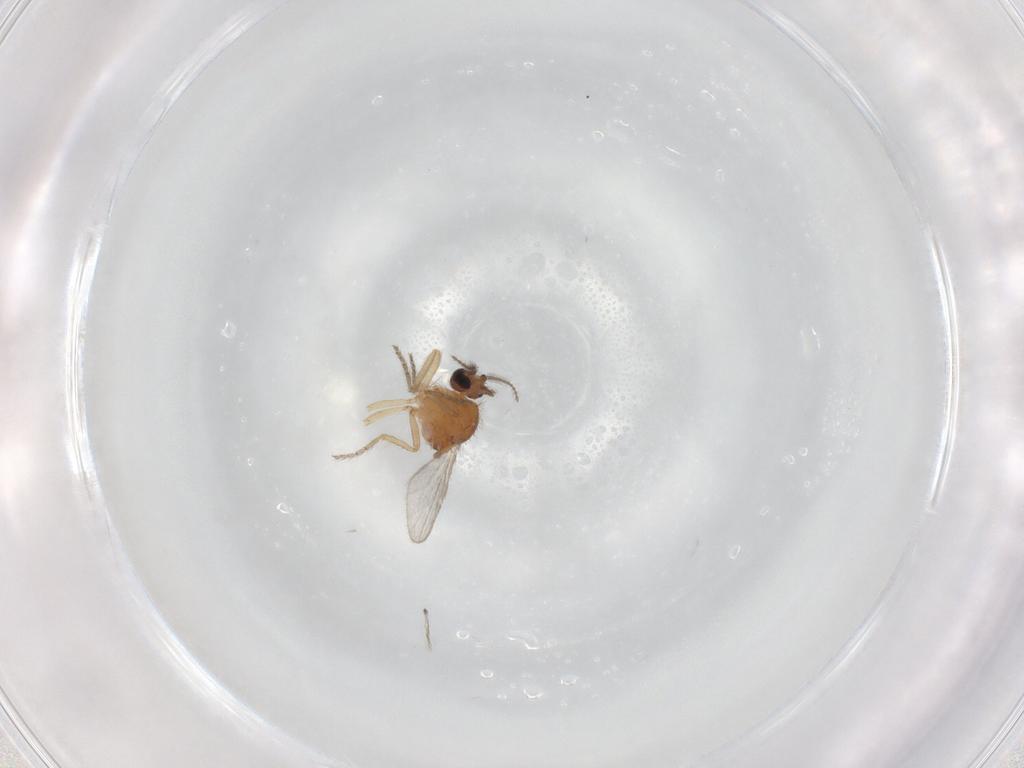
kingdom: Animalia
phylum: Arthropoda
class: Insecta
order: Diptera
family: Ceratopogonidae
